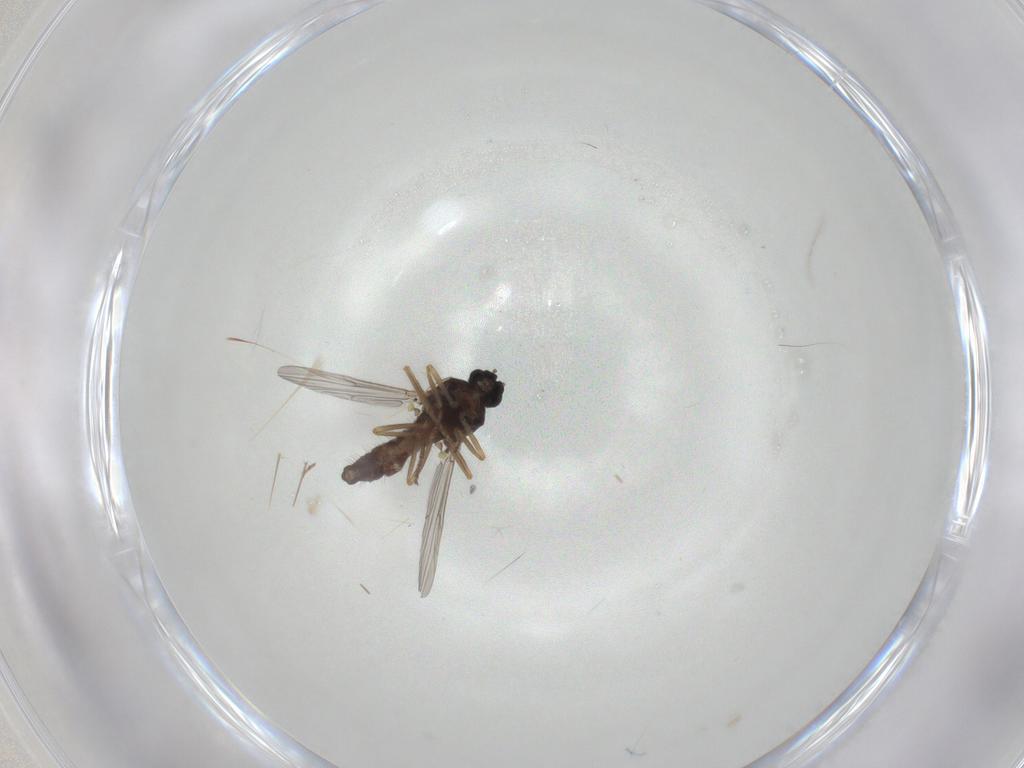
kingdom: Animalia
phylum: Arthropoda
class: Insecta
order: Diptera
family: Ceratopogonidae
